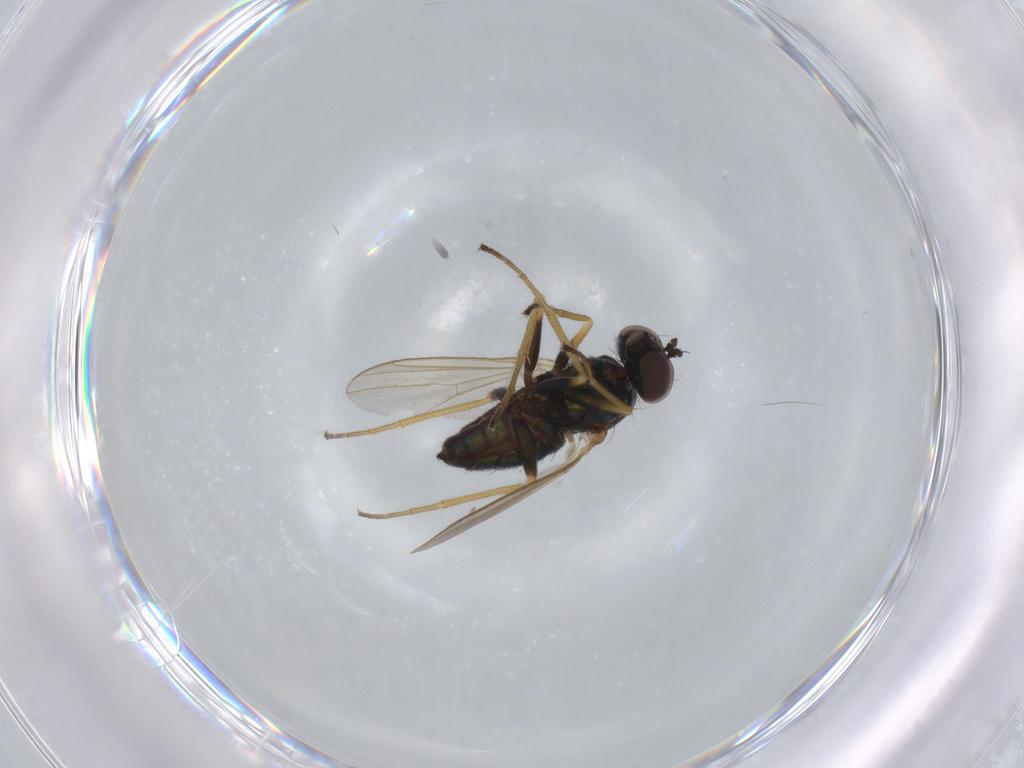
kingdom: Animalia
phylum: Arthropoda
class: Insecta
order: Diptera
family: Dolichopodidae
